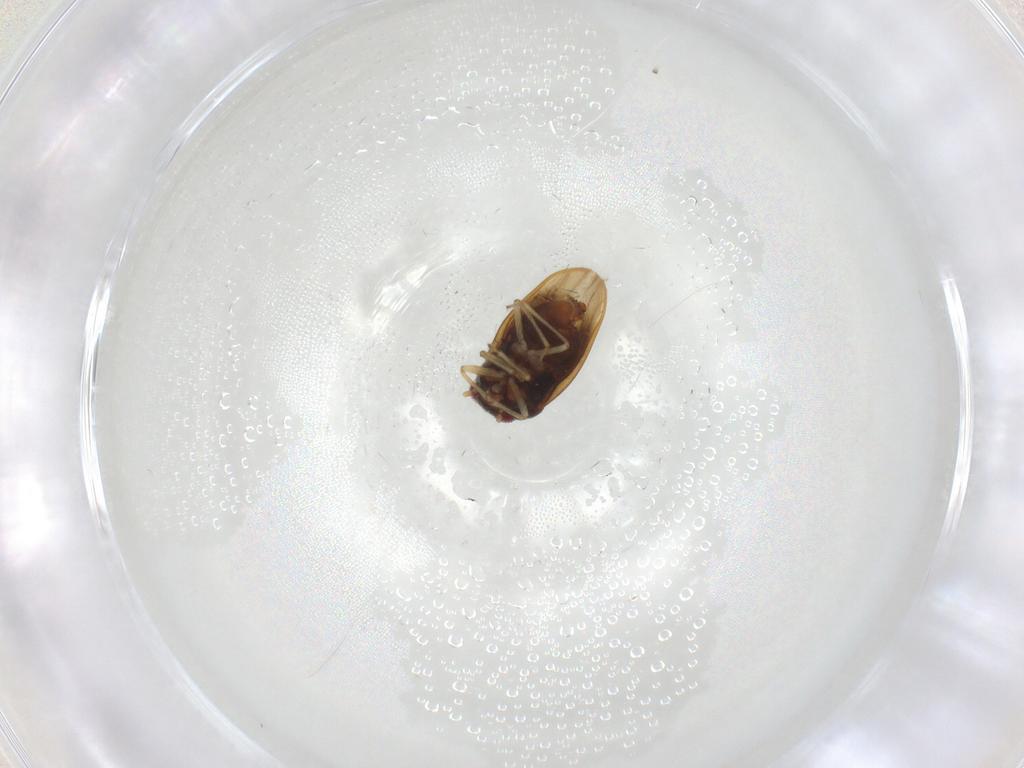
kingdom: Animalia
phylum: Arthropoda
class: Insecta
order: Hemiptera
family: Schizopteridae
